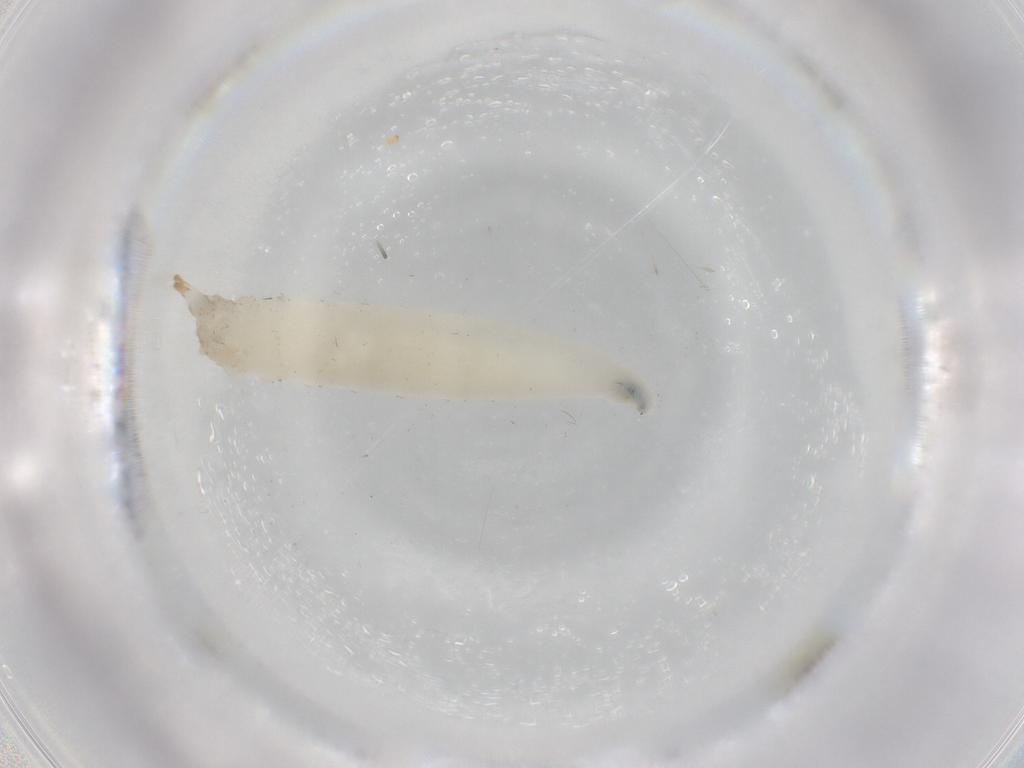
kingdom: Animalia
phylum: Arthropoda
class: Insecta
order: Diptera
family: Drosophilidae
